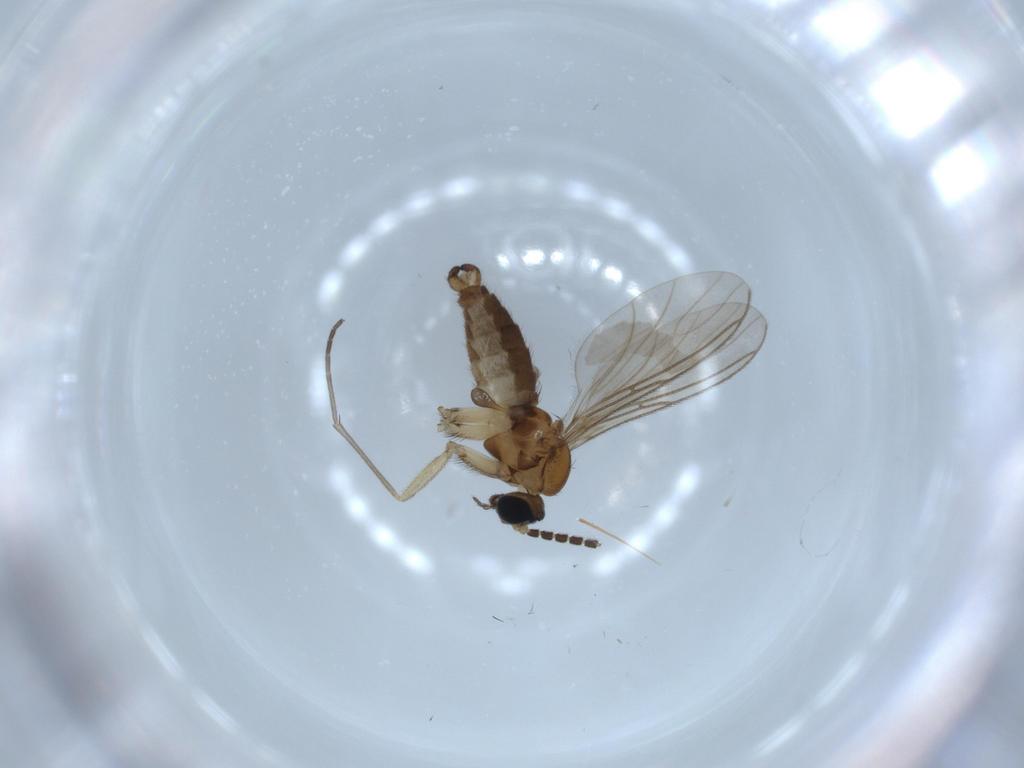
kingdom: Animalia
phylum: Arthropoda
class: Insecta
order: Diptera
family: Sciaridae
